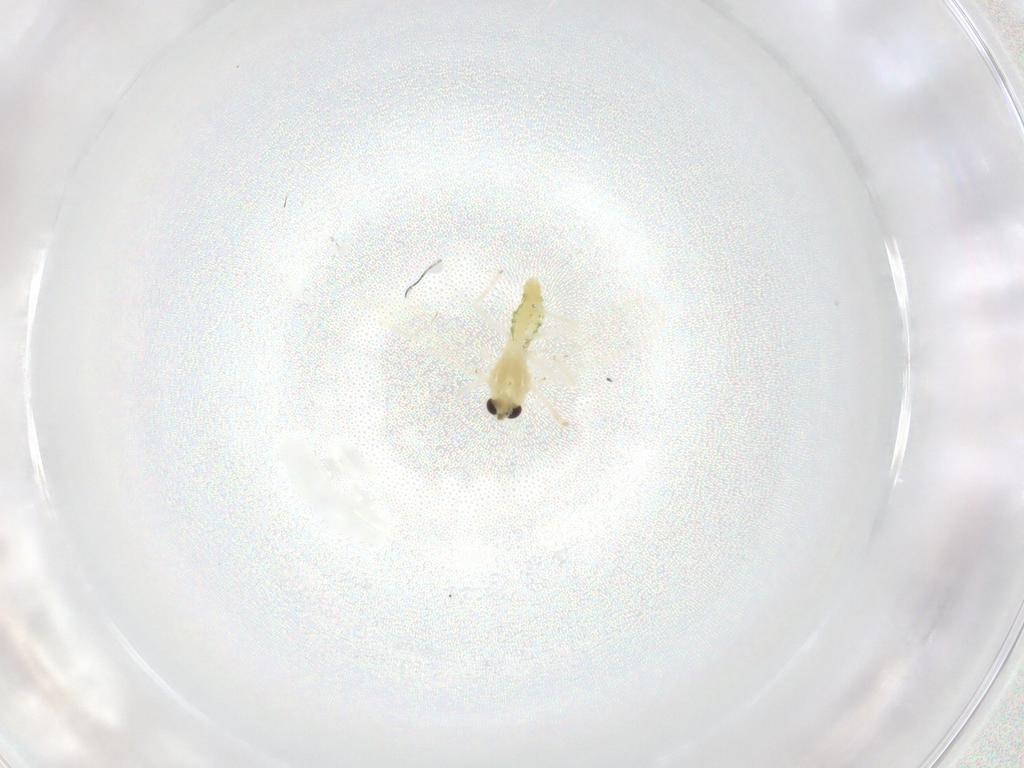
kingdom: Animalia
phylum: Arthropoda
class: Insecta
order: Diptera
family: Chironomidae
